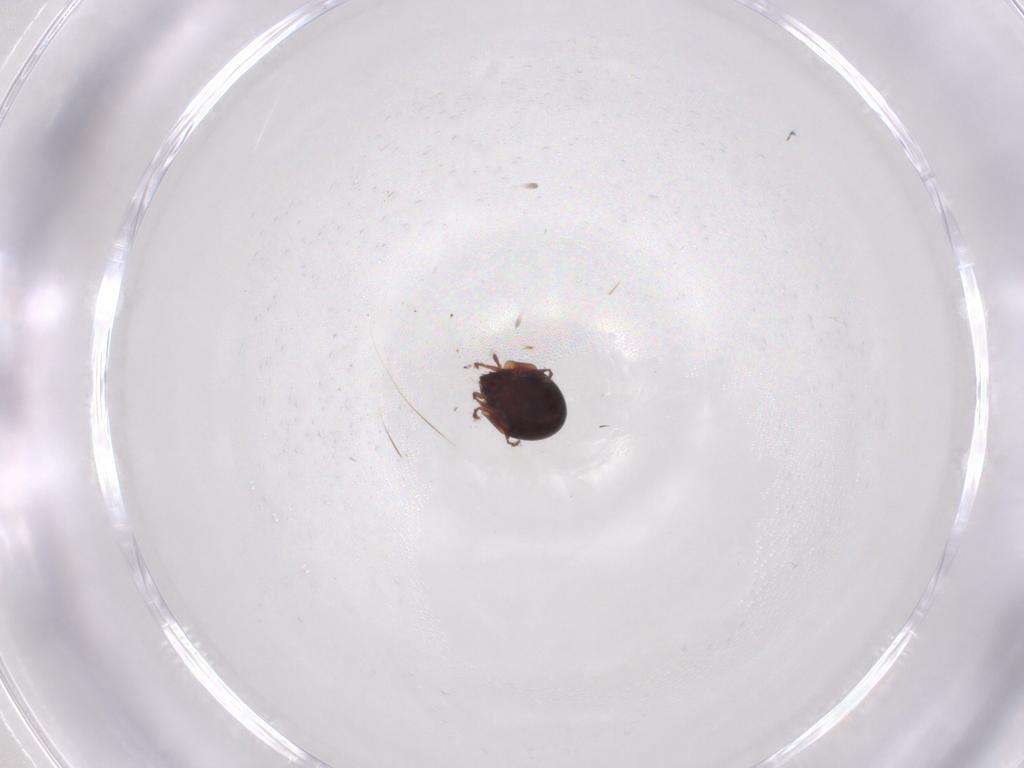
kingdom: Animalia
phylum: Arthropoda
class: Arachnida
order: Sarcoptiformes
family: Humerobatidae
